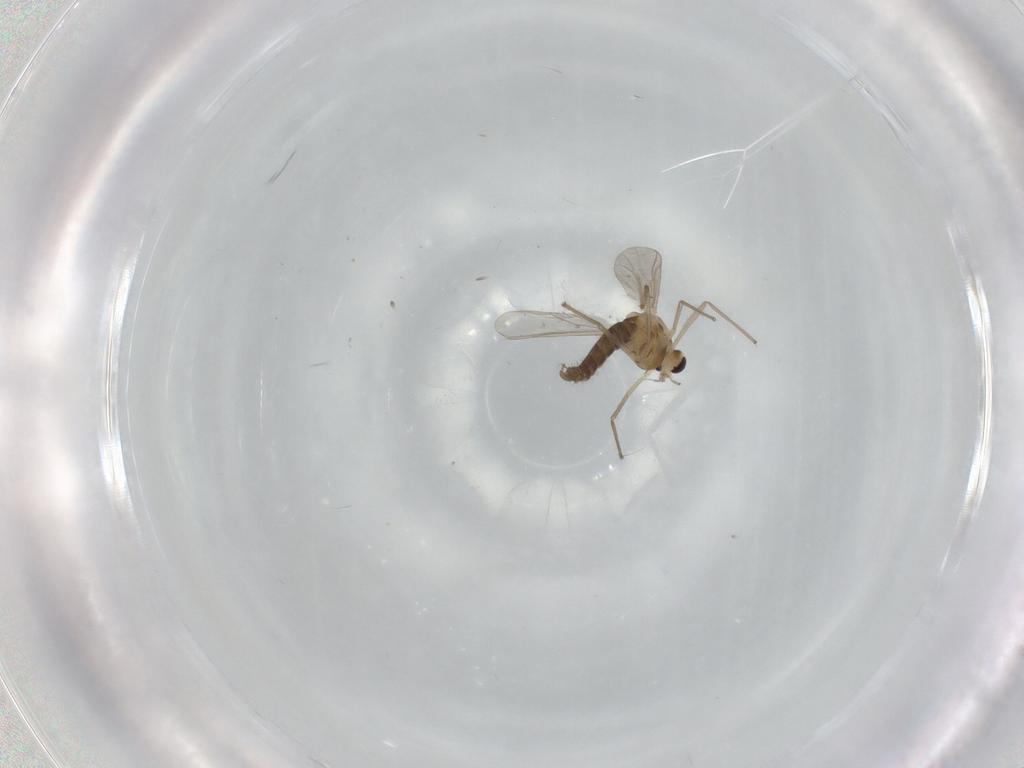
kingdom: Animalia
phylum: Arthropoda
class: Insecta
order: Diptera
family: Chironomidae
